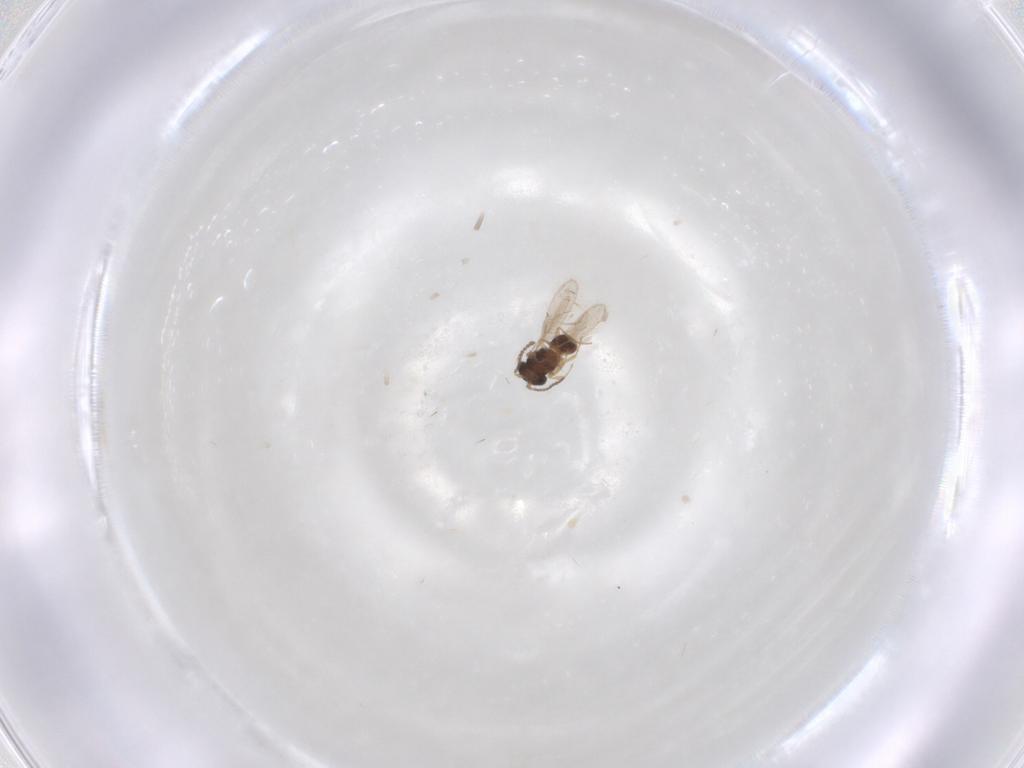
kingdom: Animalia
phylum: Arthropoda
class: Insecta
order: Hymenoptera
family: Scelionidae
